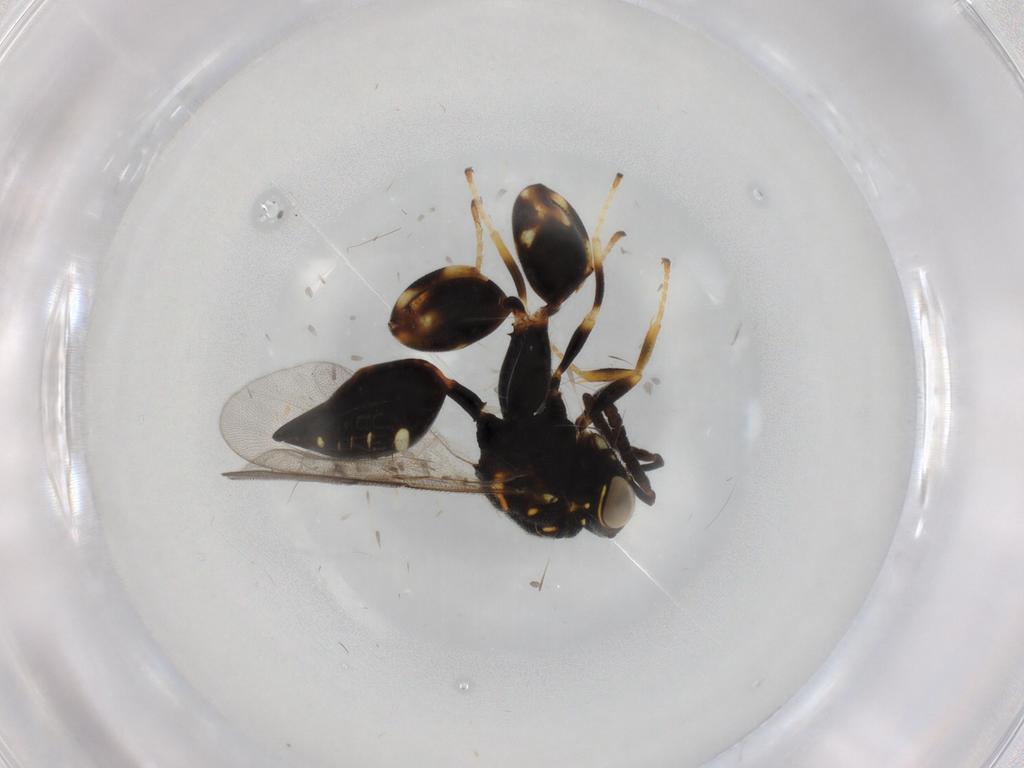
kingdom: Animalia
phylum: Arthropoda
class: Insecta
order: Hymenoptera
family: Chalcididae
